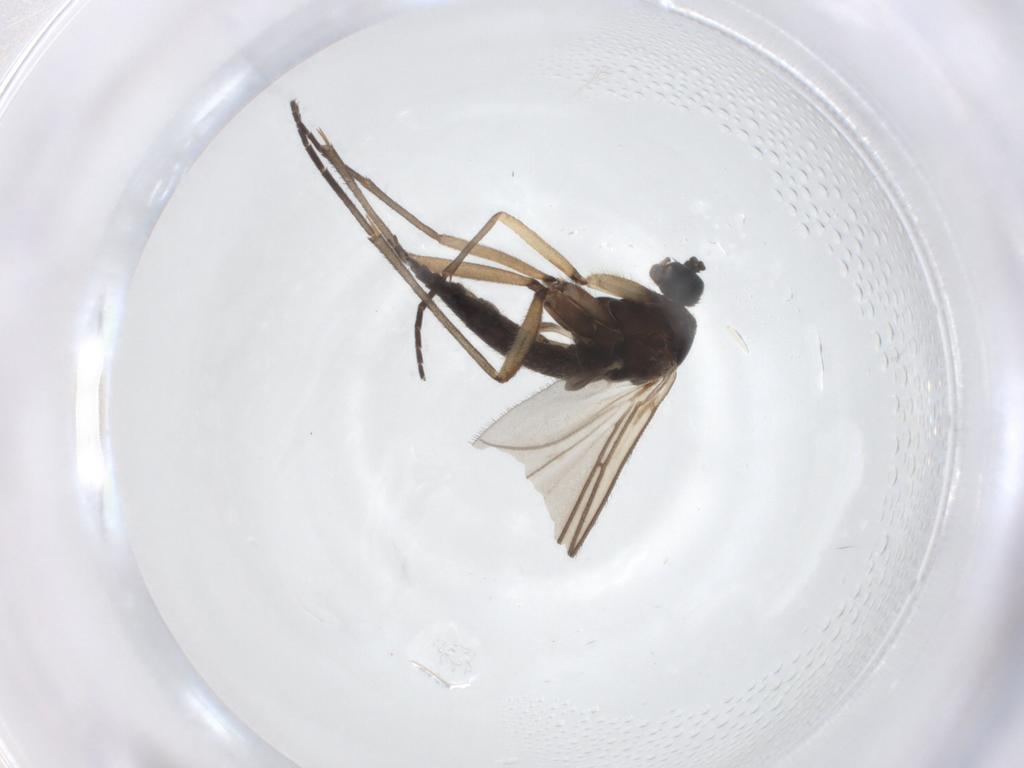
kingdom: Animalia
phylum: Arthropoda
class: Insecta
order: Diptera
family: Sciaridae
